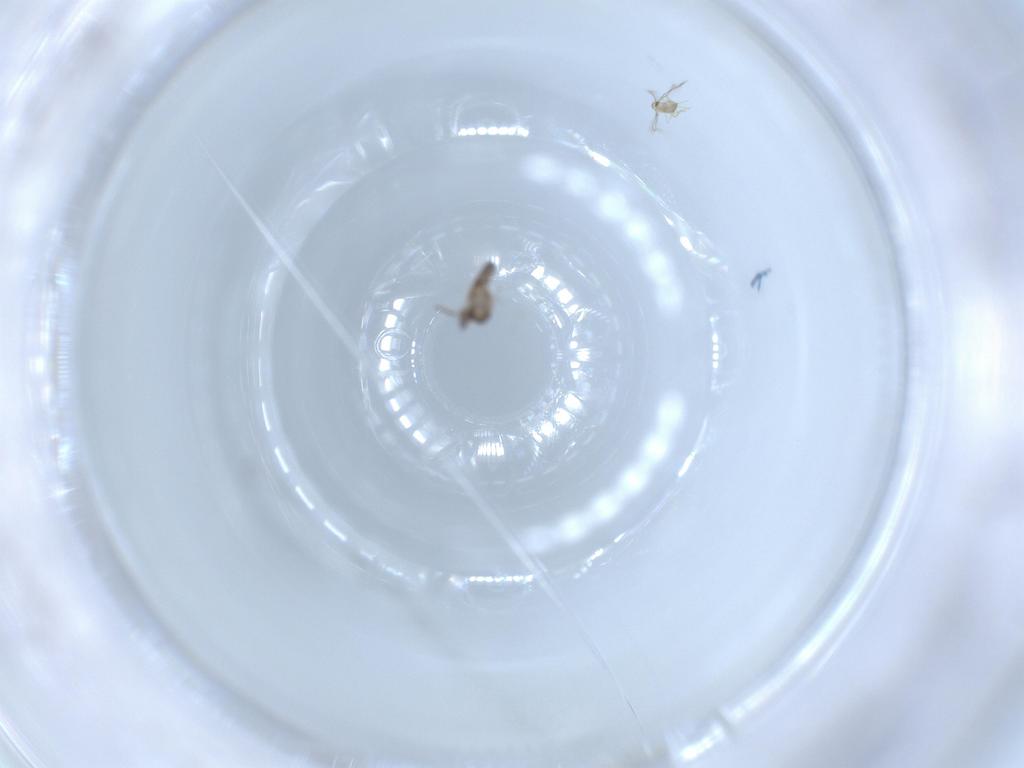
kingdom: Animalia
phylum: Arthropoda
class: Insecta
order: Diptera
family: Cecidomyiidae
